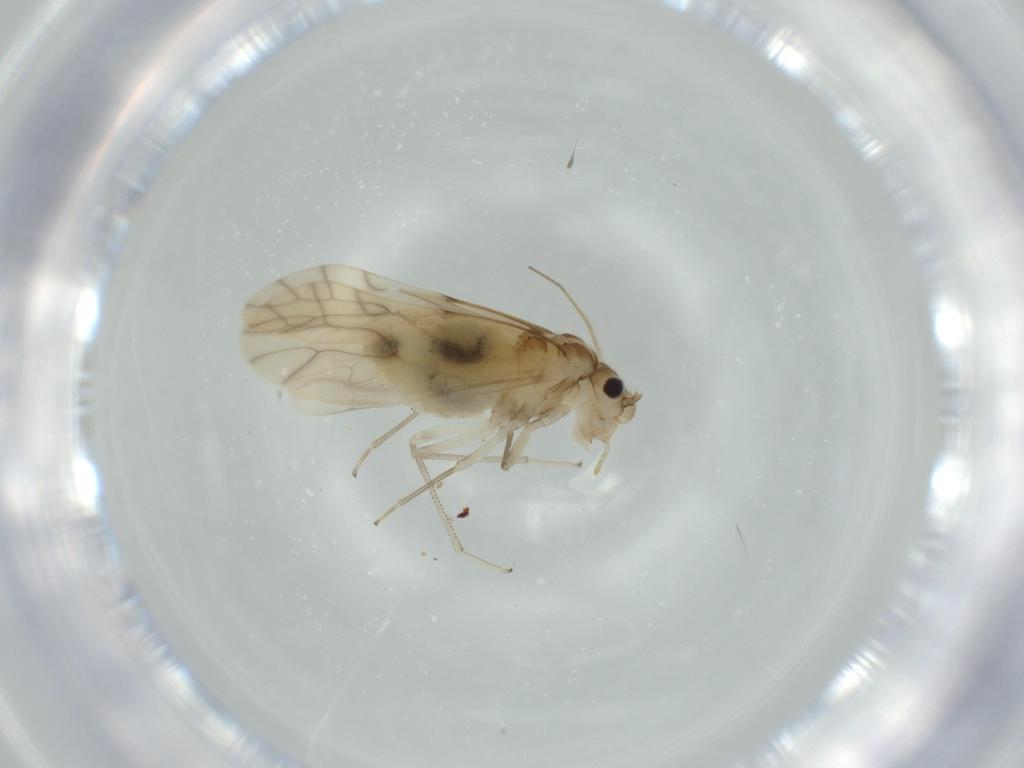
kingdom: Animalia
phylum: Arthropoda
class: Insecta
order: Psocodea
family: Caeciliusidae
